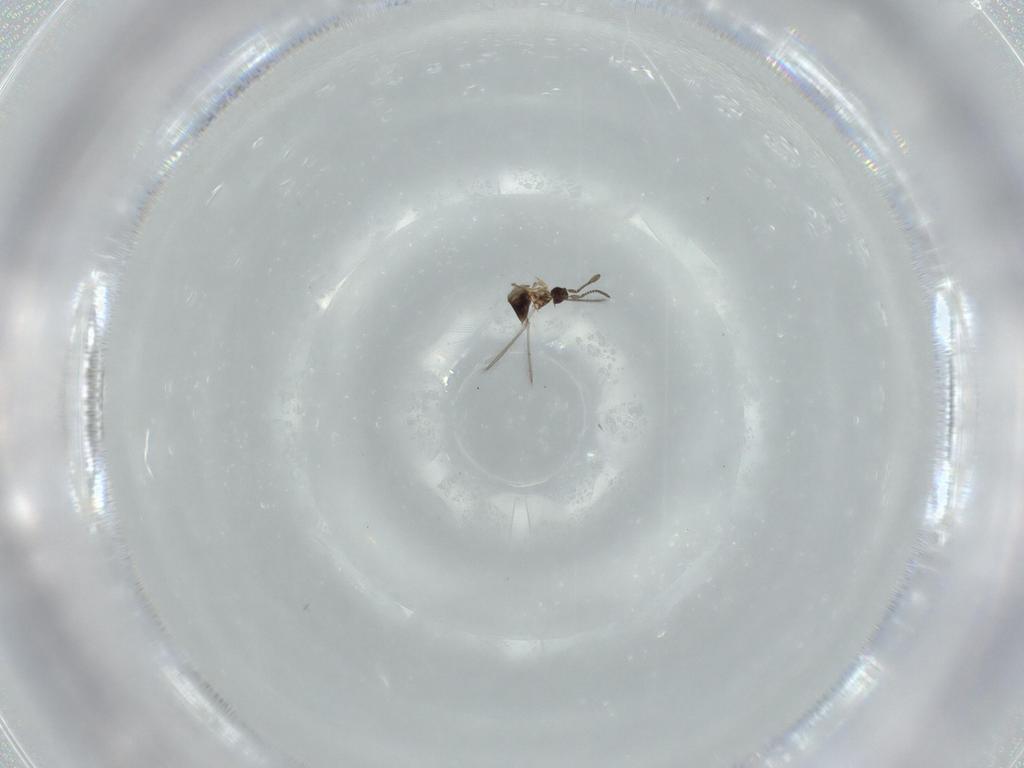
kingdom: Animalia
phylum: Arthropoda
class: Insecta
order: Hymenoptera
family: Mymaridae
